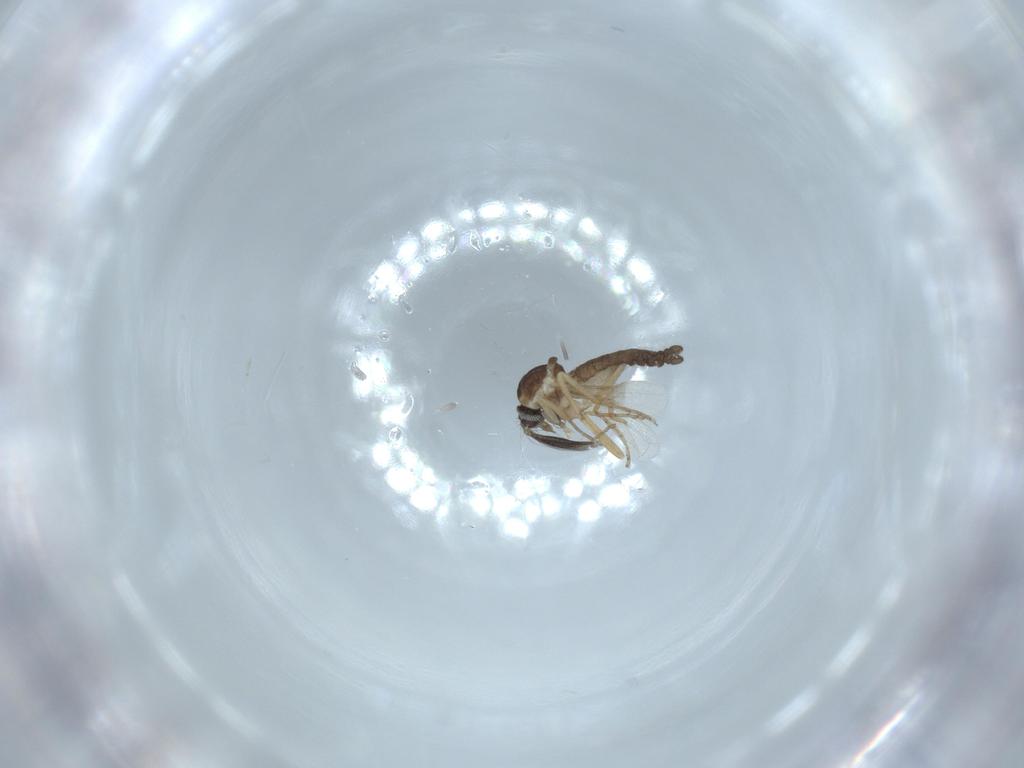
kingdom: Animalia
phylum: Arthropoda
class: Insecta
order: Diptera
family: Ceratopogonidae
